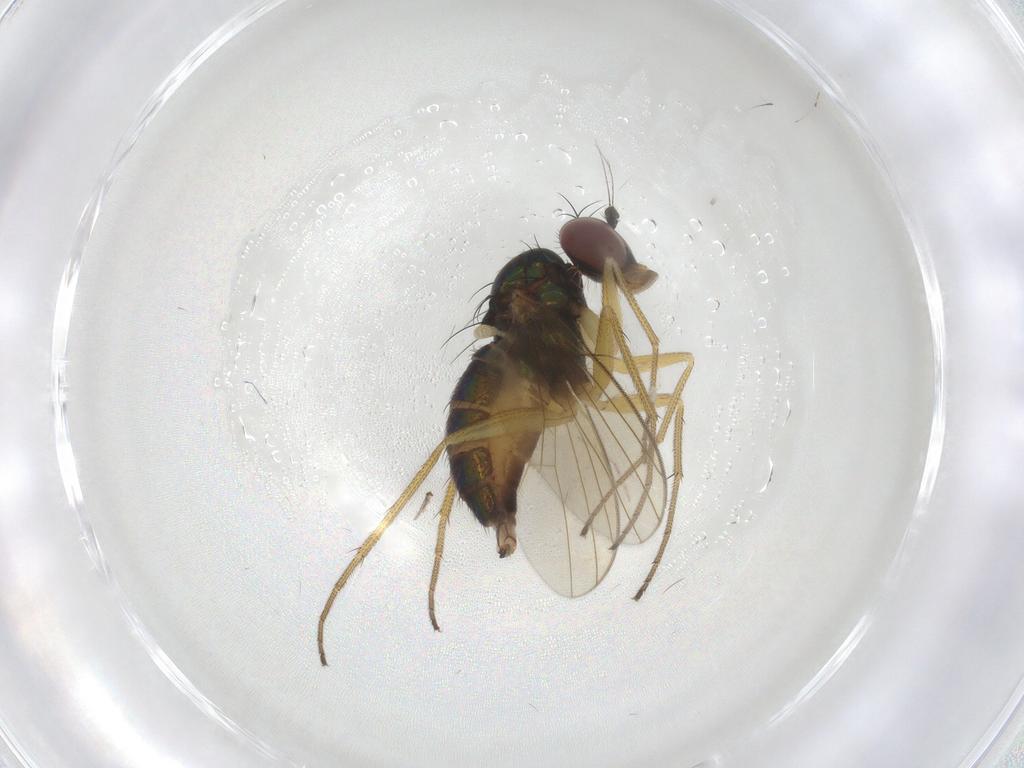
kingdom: Animalia
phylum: Arthropoda
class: Insecta
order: Diptera
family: Dolichopodidae
